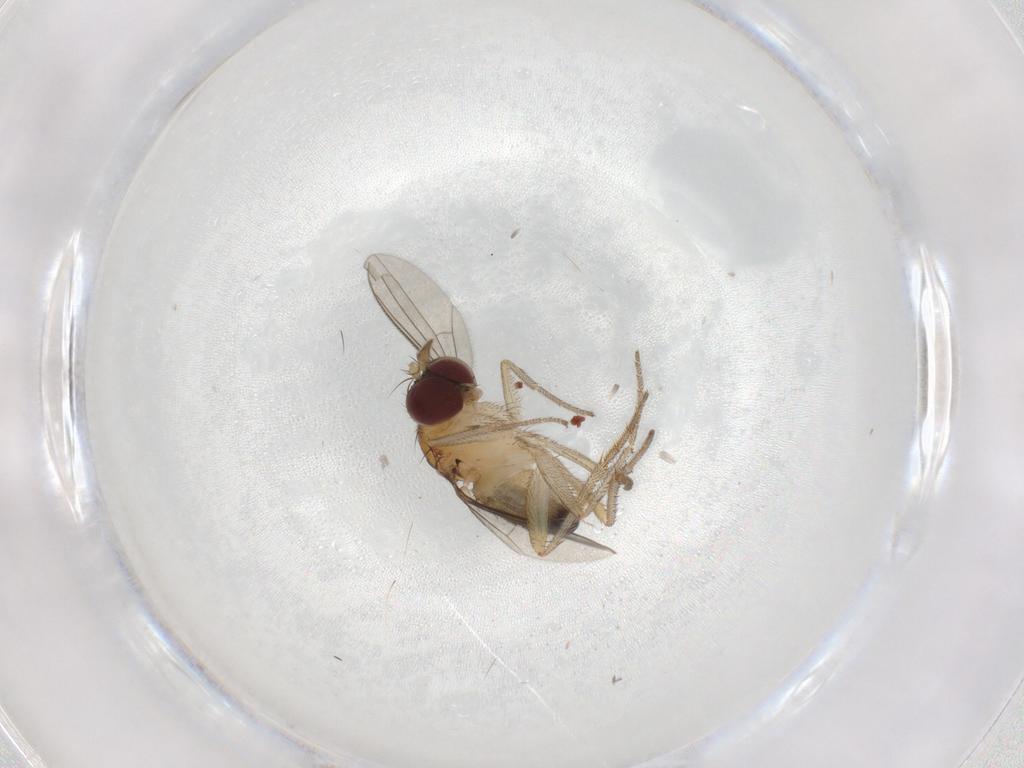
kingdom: Animalia
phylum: Arthropoda
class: Insecta
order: Diptera
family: Dolichopodidae
